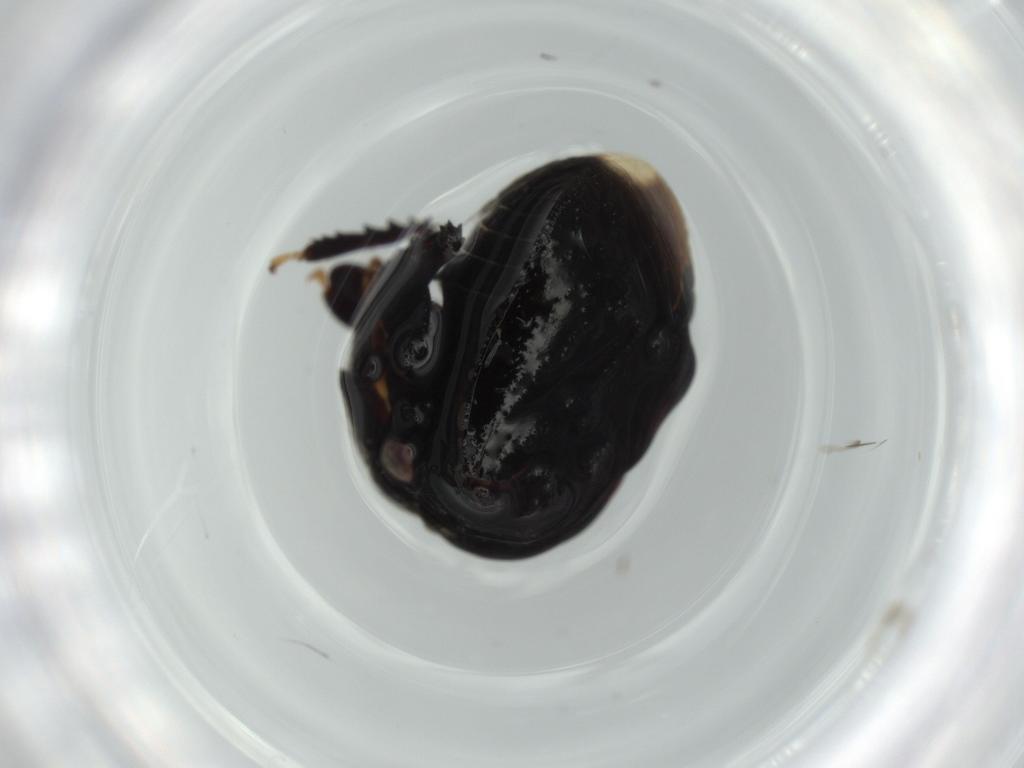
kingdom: Animalia
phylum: Arthropoda
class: Insecta
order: Hemiptera
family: Membracidae
